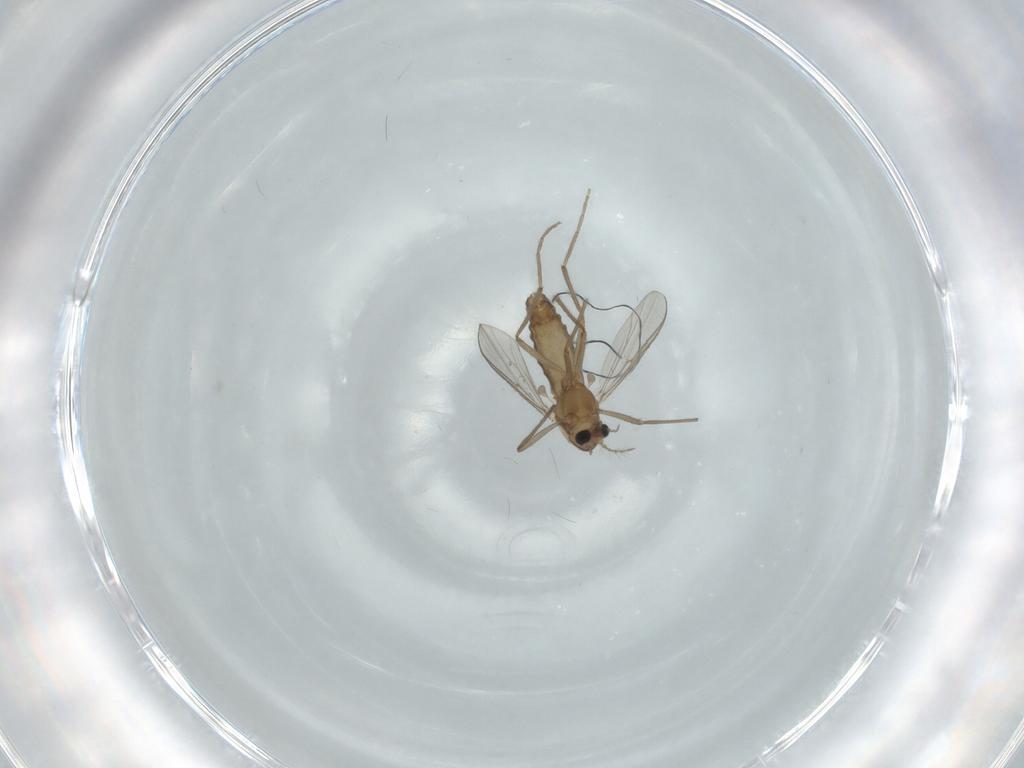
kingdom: Animalia
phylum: Arthropoda
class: Insecta
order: Diptera
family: Chironomidae
